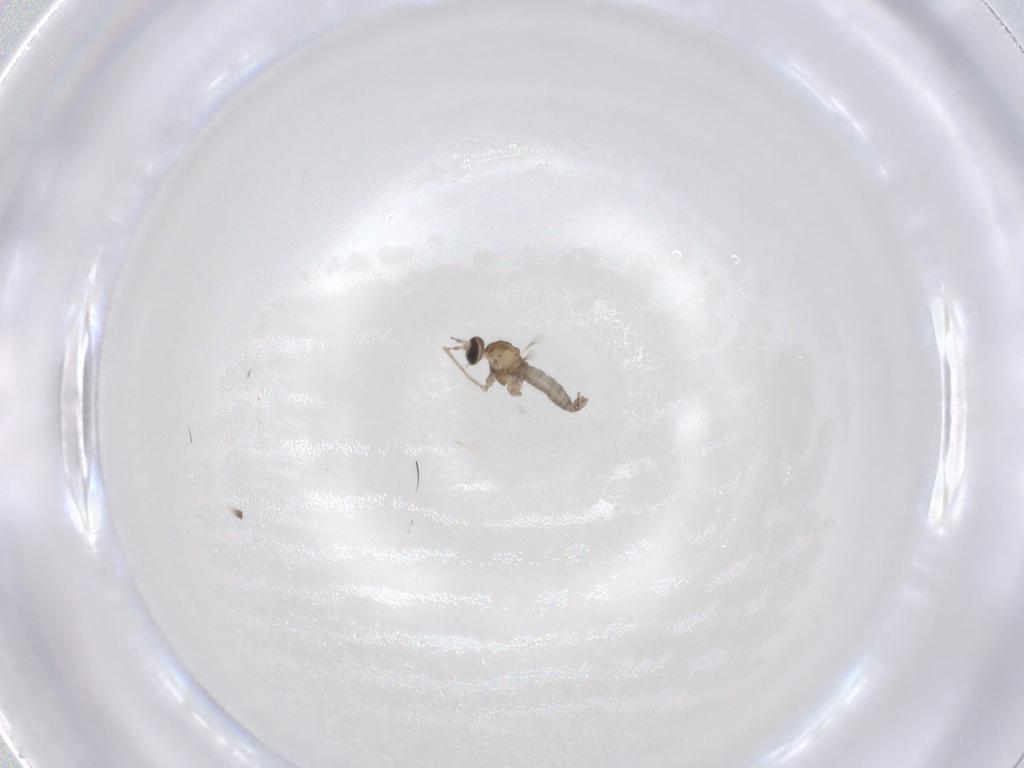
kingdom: Animalia
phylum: Arthropoda
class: Insecta
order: Diptera
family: Cecidomyiidae
